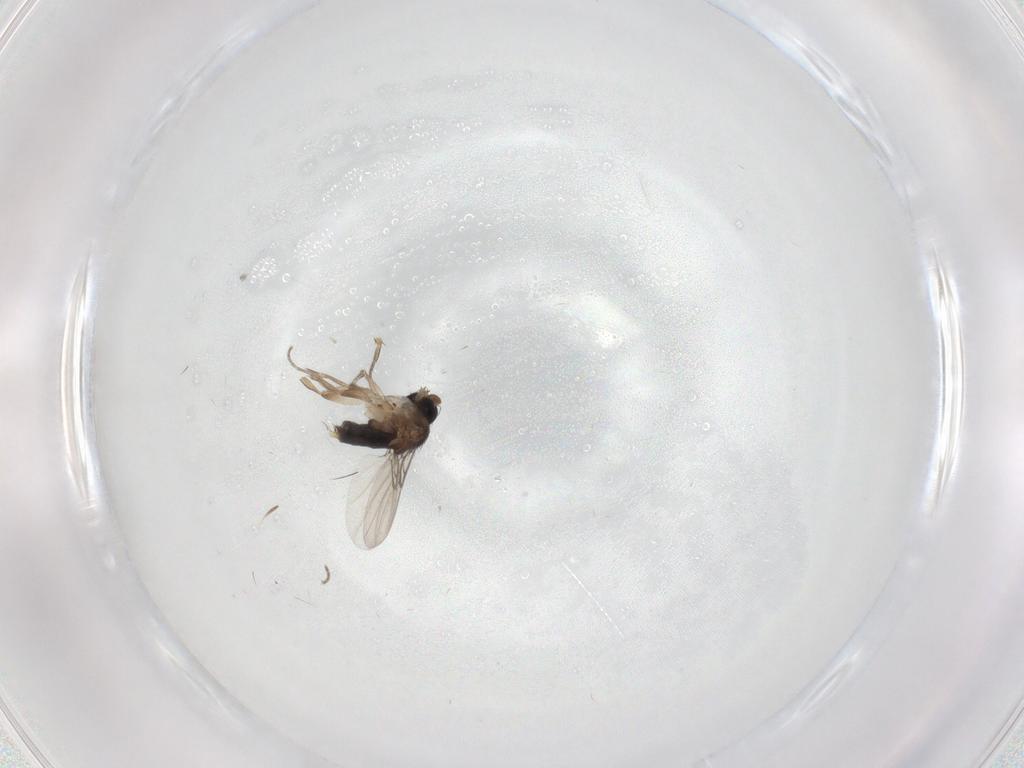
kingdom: Animalia
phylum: Arthropoda
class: Insecta
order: Diptera
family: Phoridae
